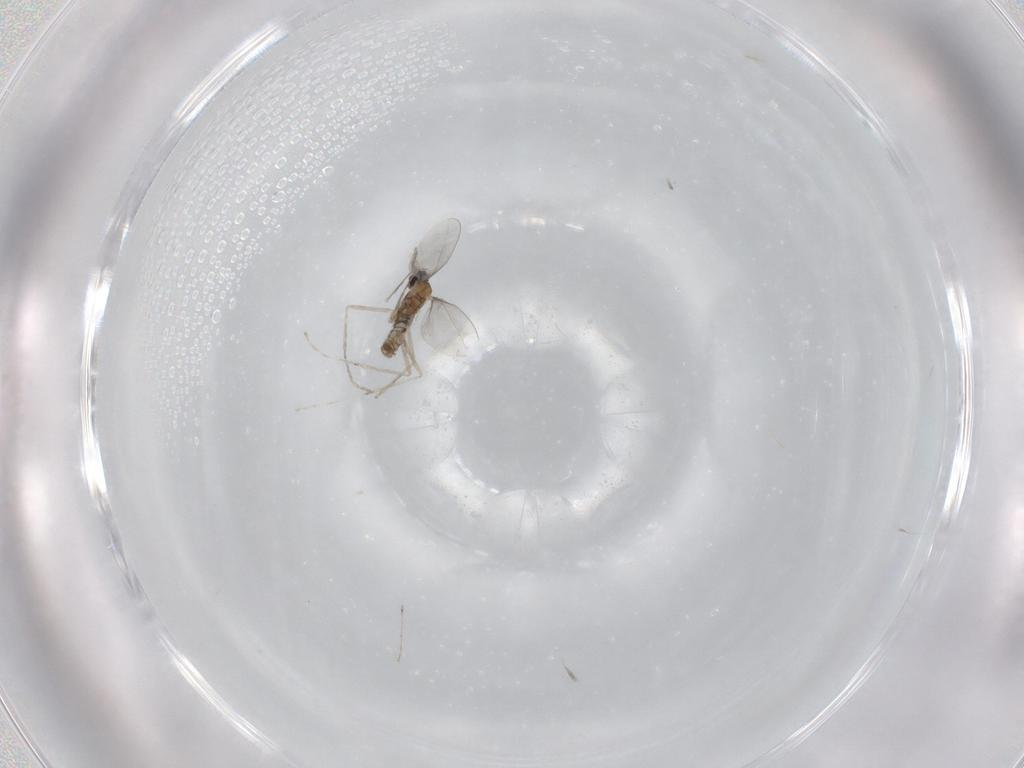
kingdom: Animalia
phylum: Arthropoda
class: Insecta
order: Diptera
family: Cecidomyiidae
